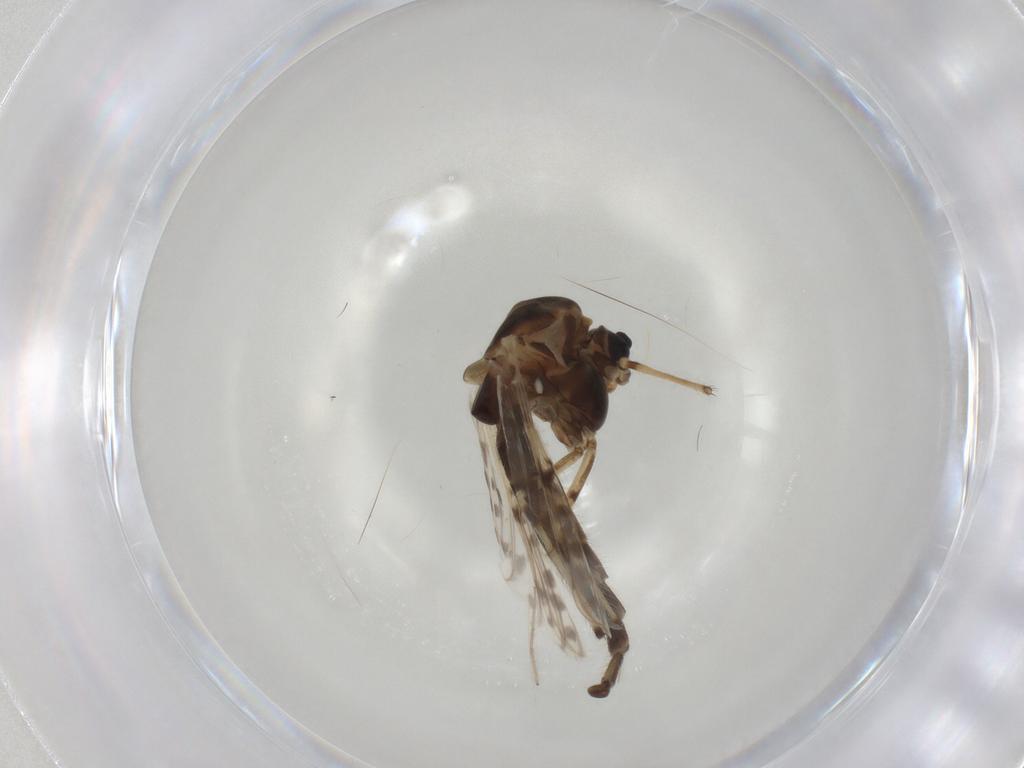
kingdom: Animalia
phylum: Arthropoda
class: Insecta
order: Diptera
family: Chironomidae
